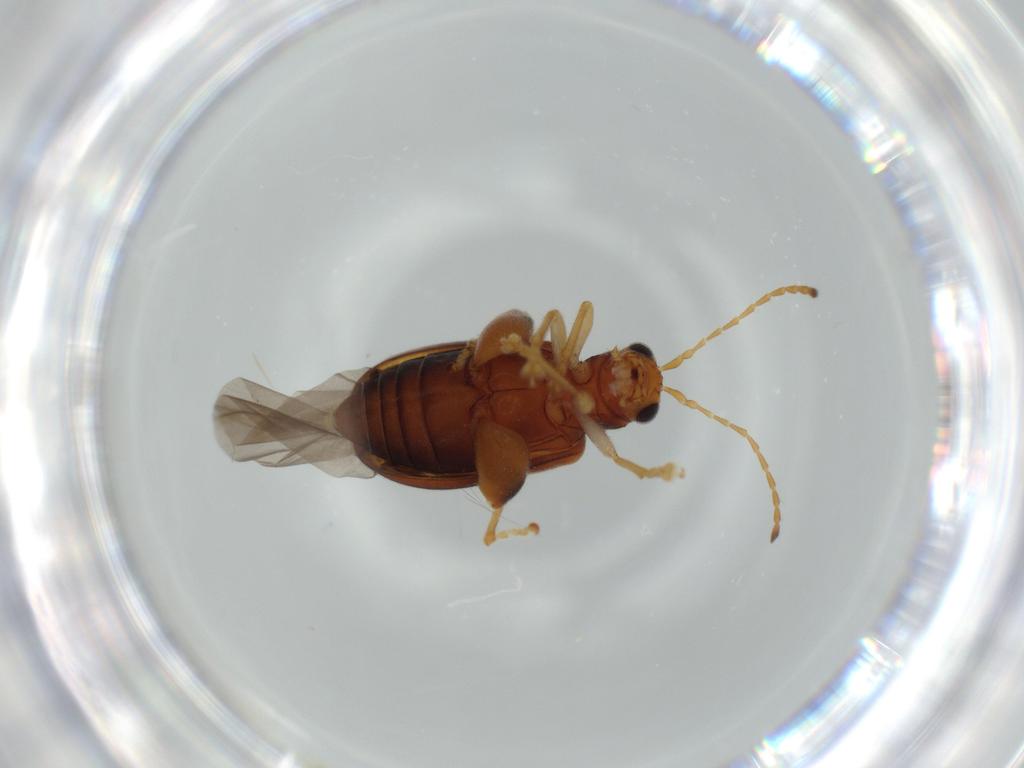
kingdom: Animalia
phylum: Arthropoda
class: Insecta
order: Coleoptera
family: Chrysomelidae
